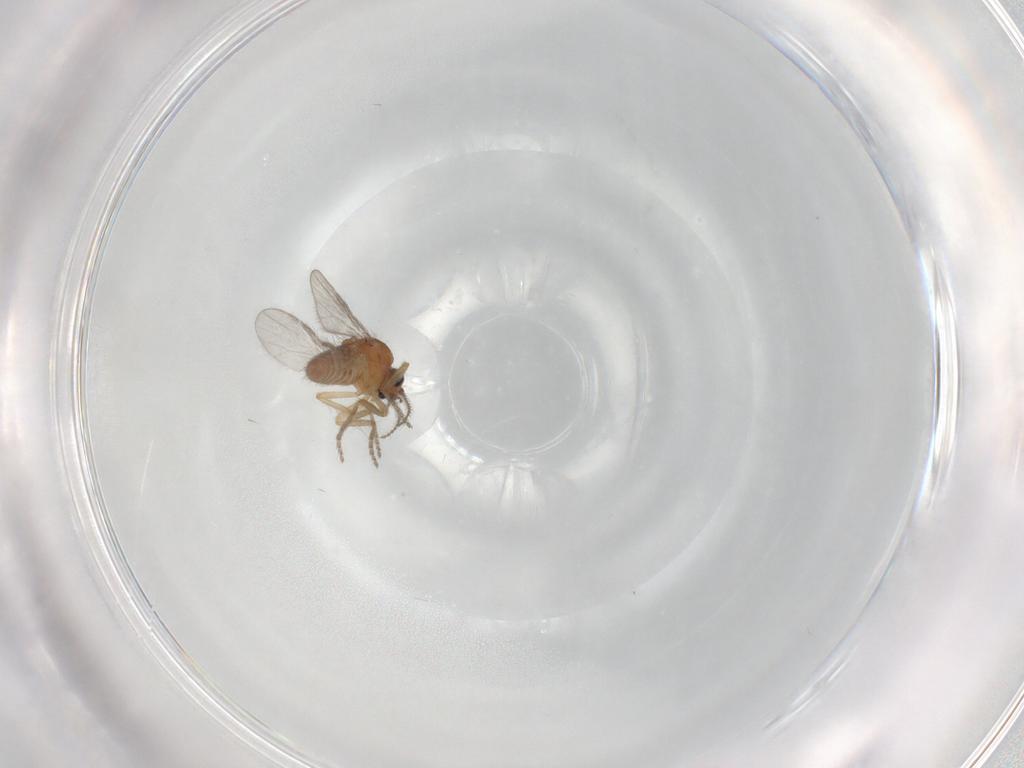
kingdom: Animalia
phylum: Arthropoda
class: Insecta
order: Diptera
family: Ceratopogonidae
